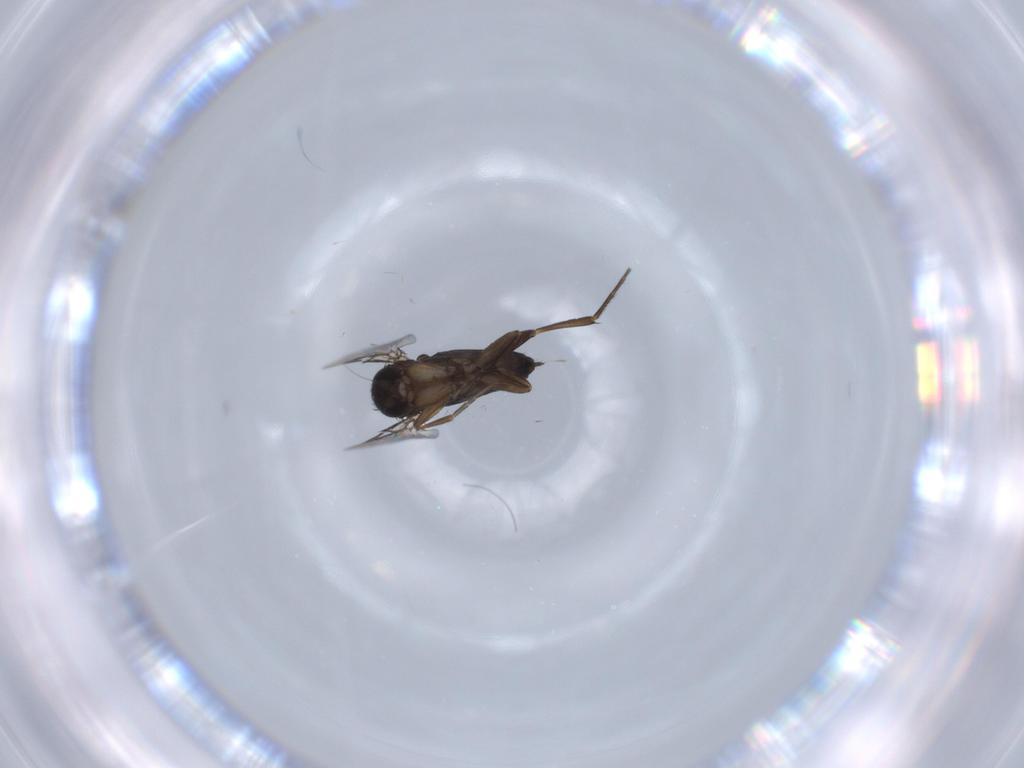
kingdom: Animalia
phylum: Arthropoda
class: Insecta
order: Diptera
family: Phoridae
